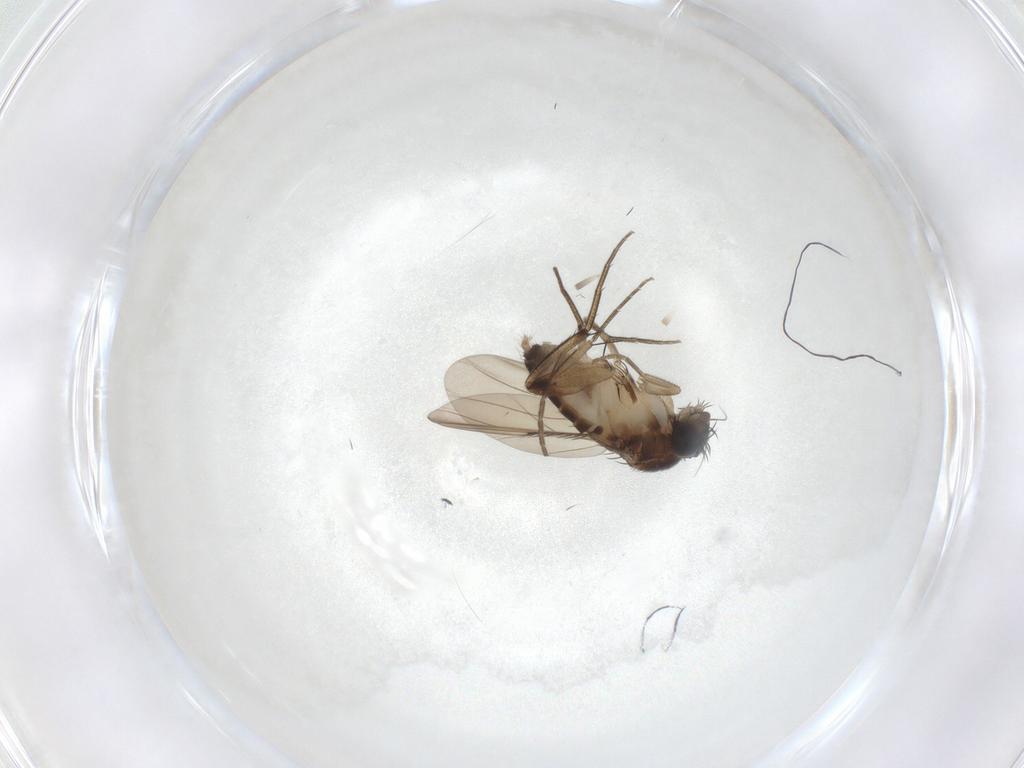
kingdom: Animalia
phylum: Arthropoda
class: Insecta
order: Diptera
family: Phoridae
